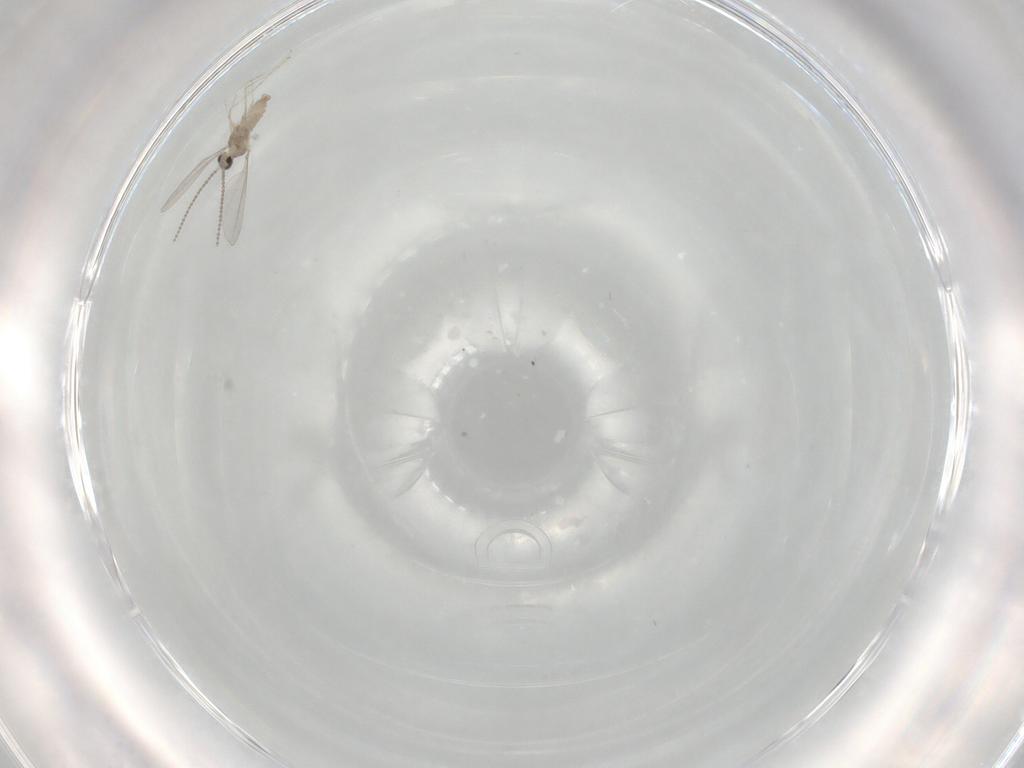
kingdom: Animalia
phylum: Arthropoda
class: Insecta
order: Diptera
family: Cecidomyiidae
